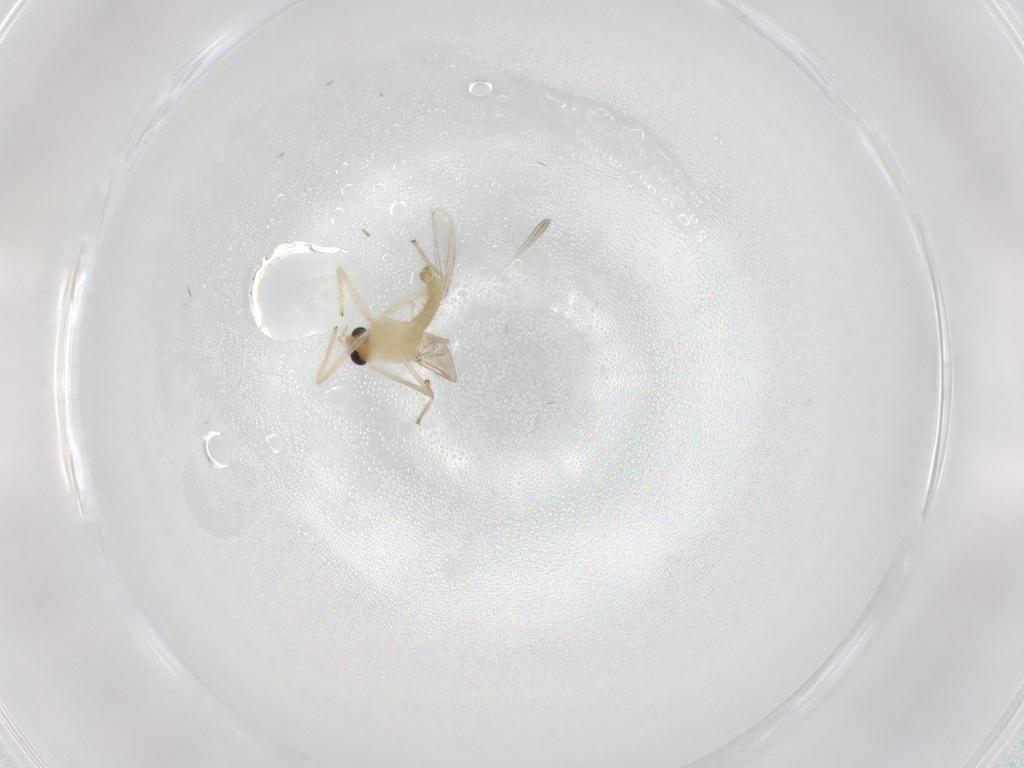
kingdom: Animalia
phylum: Arthropoda
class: Insecta
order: Diptera
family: Chironomidae
